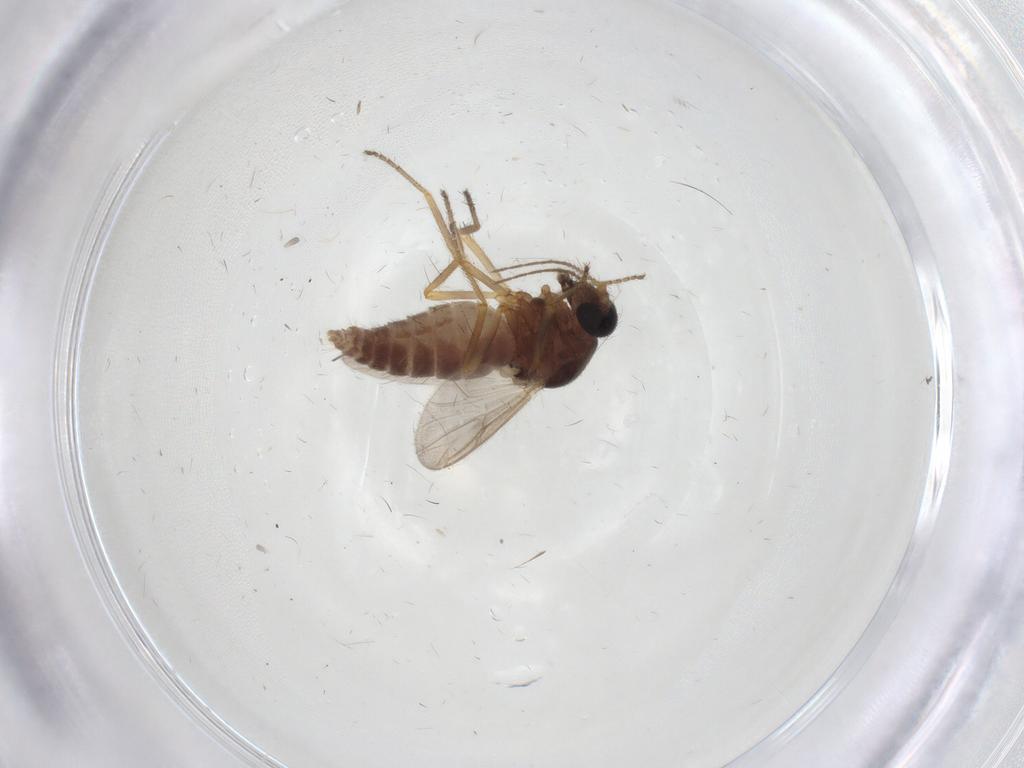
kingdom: Animalia
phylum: Arthropoda
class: Insecta
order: Diptera
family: Ceratopogonidae
